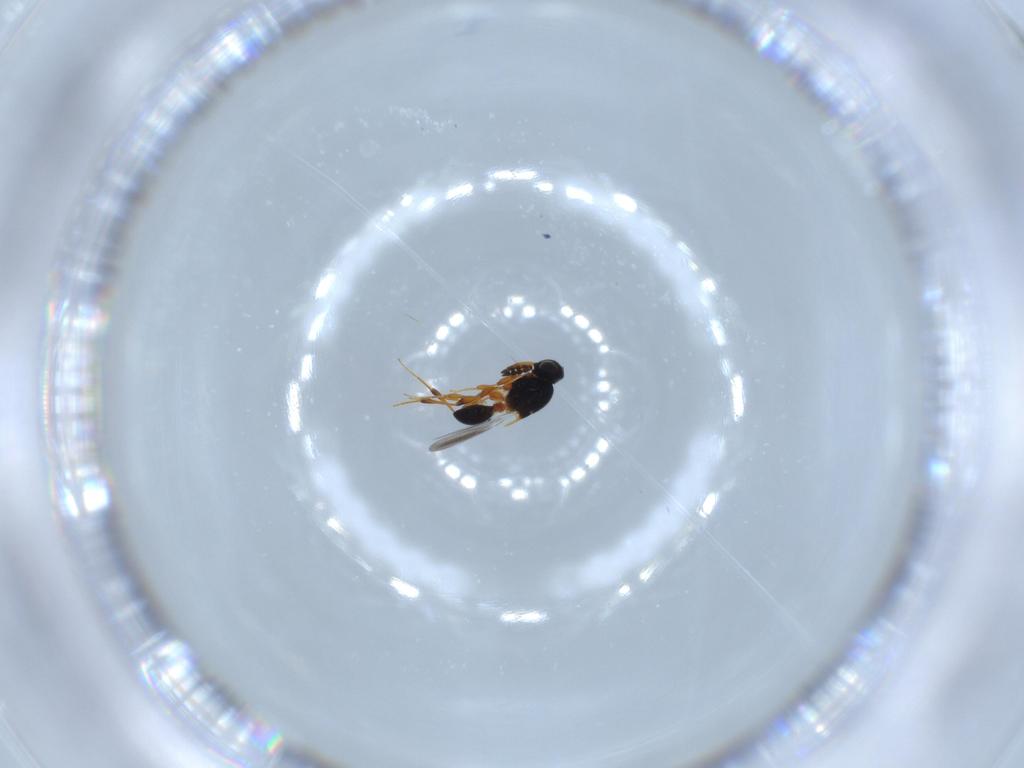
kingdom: Animalia
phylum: Arthropoda
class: Insecta
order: Hymenoptera
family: Platygastridae
